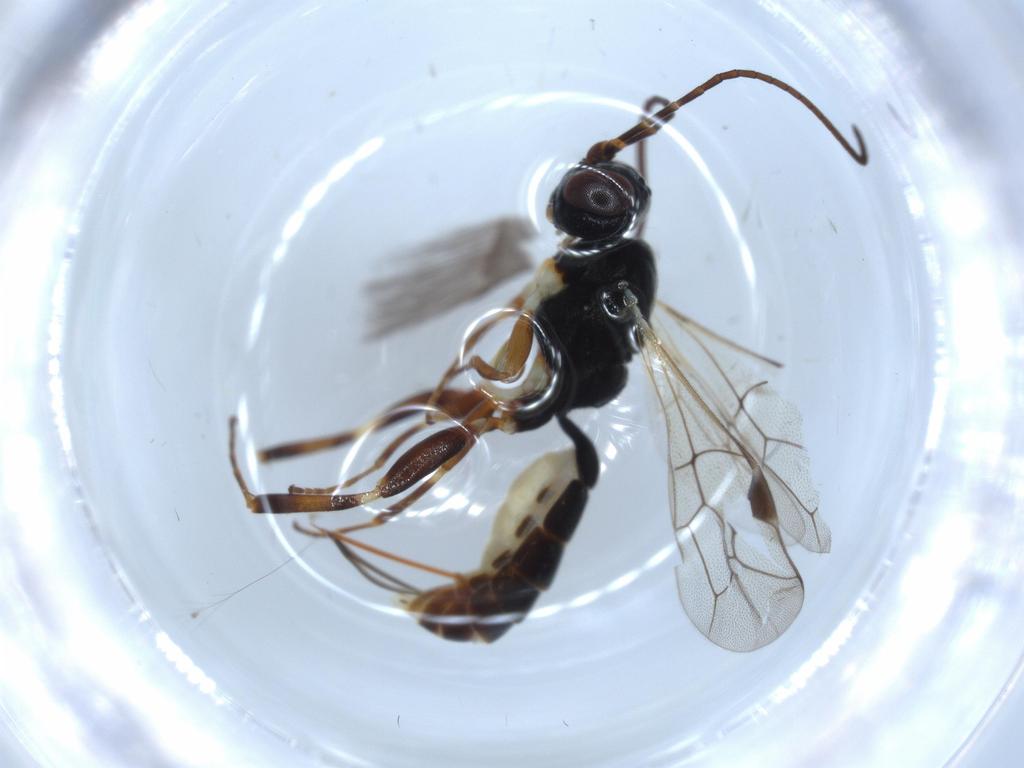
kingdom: Animalia
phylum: Arthropoda
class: Insecta
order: Hymenoptera
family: Ichneumonidae
